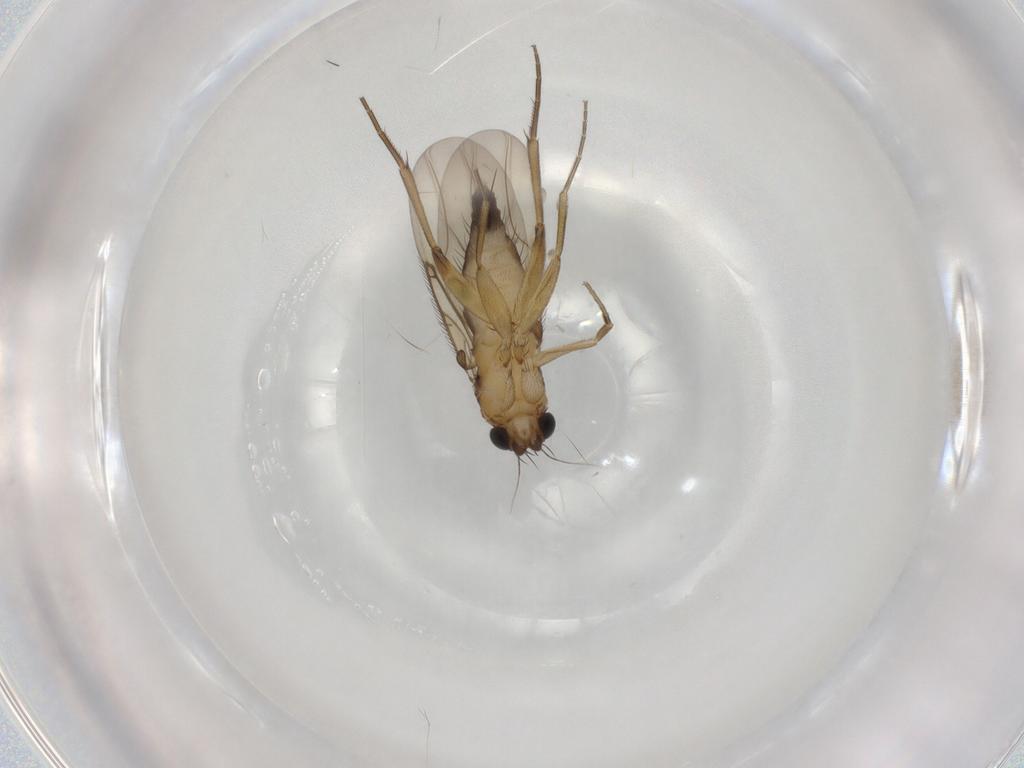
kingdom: Animalia
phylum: Arthropoda
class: Insecta
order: Diptera
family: Phoridae
